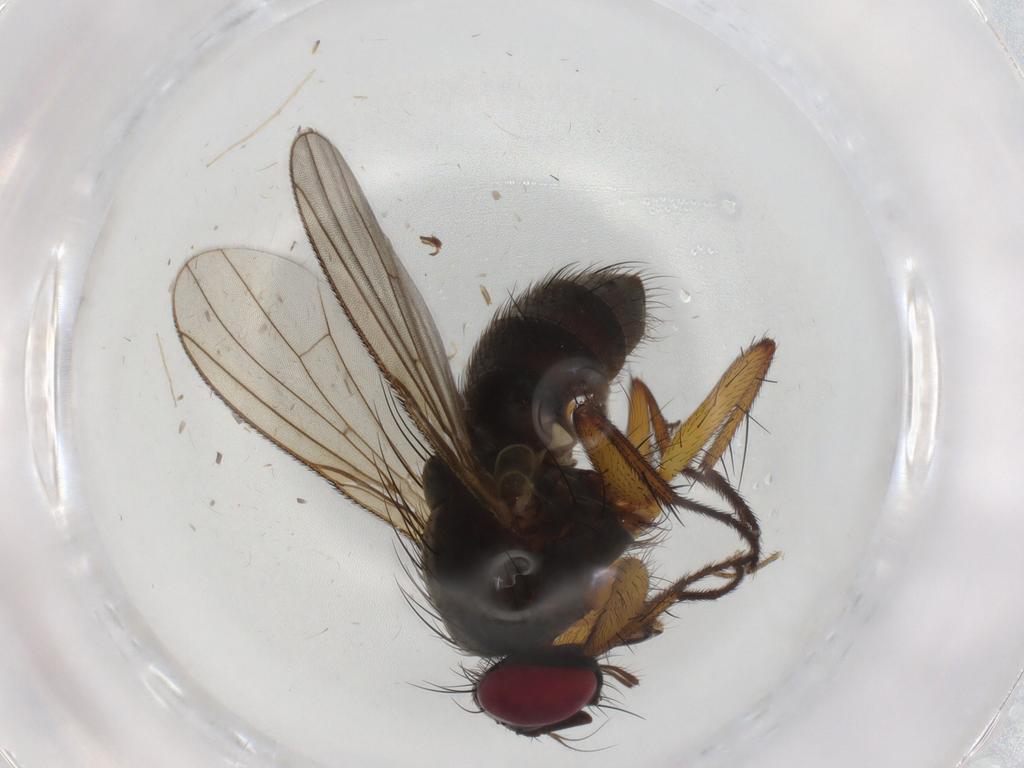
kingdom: Animalia
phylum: Arthropoda
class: Insecta
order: Diptera
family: Muscidae
